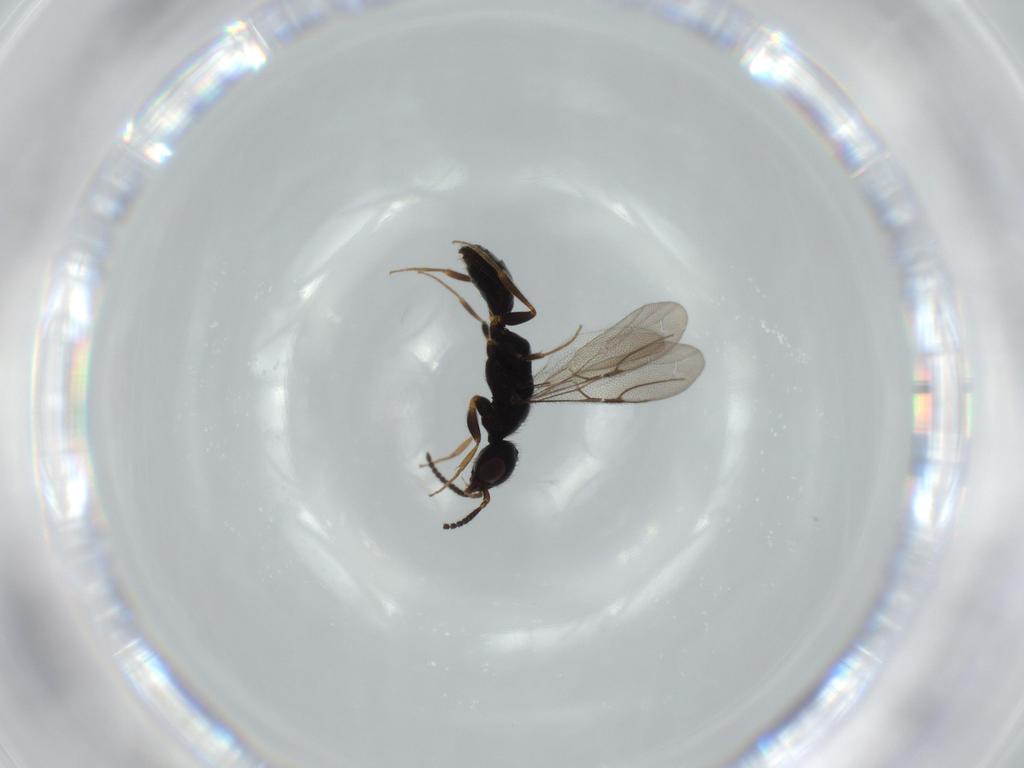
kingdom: Animalia
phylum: Arthropoda
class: Insecta
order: Hymenoptera
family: Bethylidae
